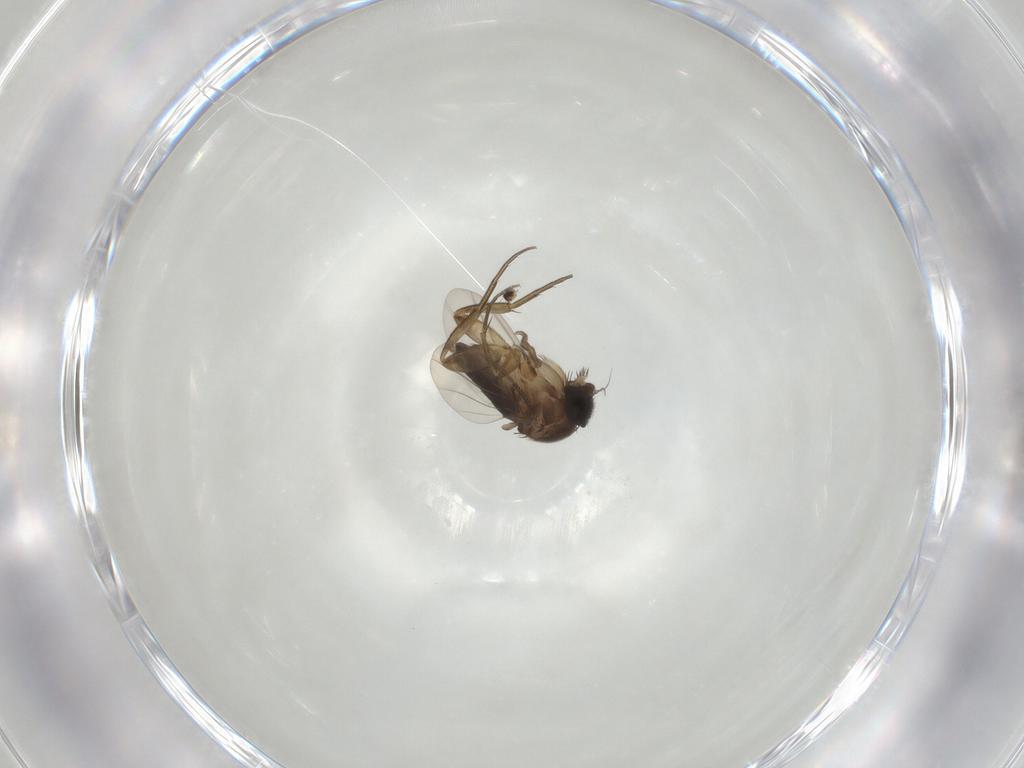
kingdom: Animalia
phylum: Arthropoda
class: Insecta
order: Diptera
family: Phoridae
